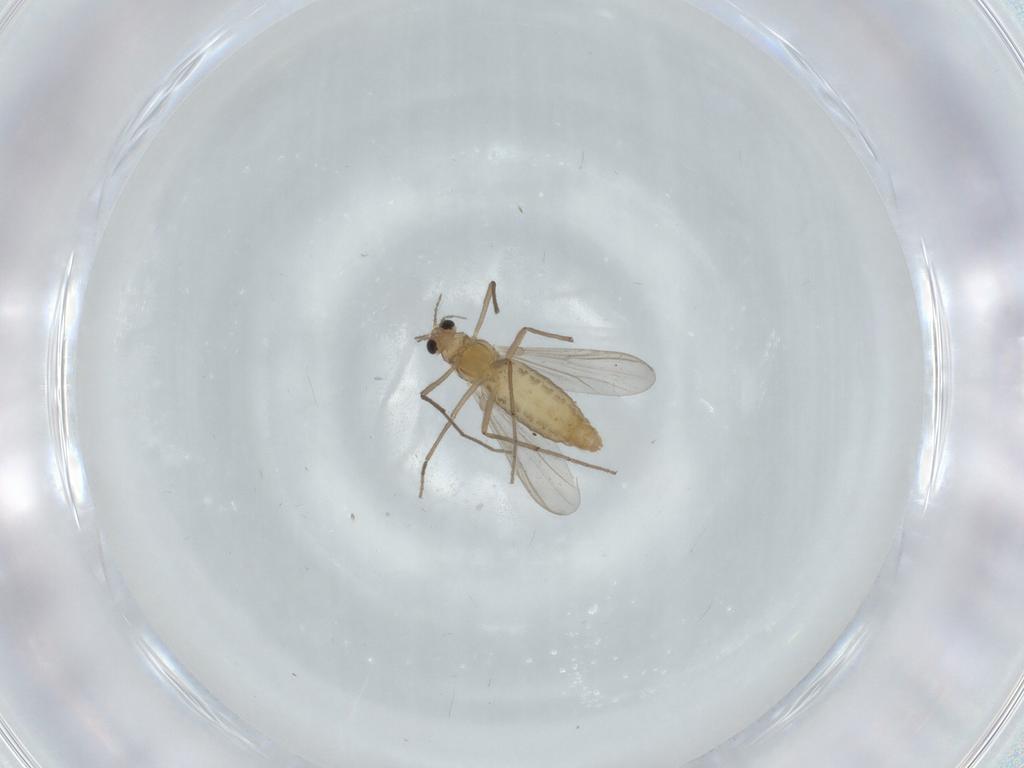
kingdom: Animalia
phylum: Arthropoda
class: Insecta
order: Diptera
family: Chironomidae
